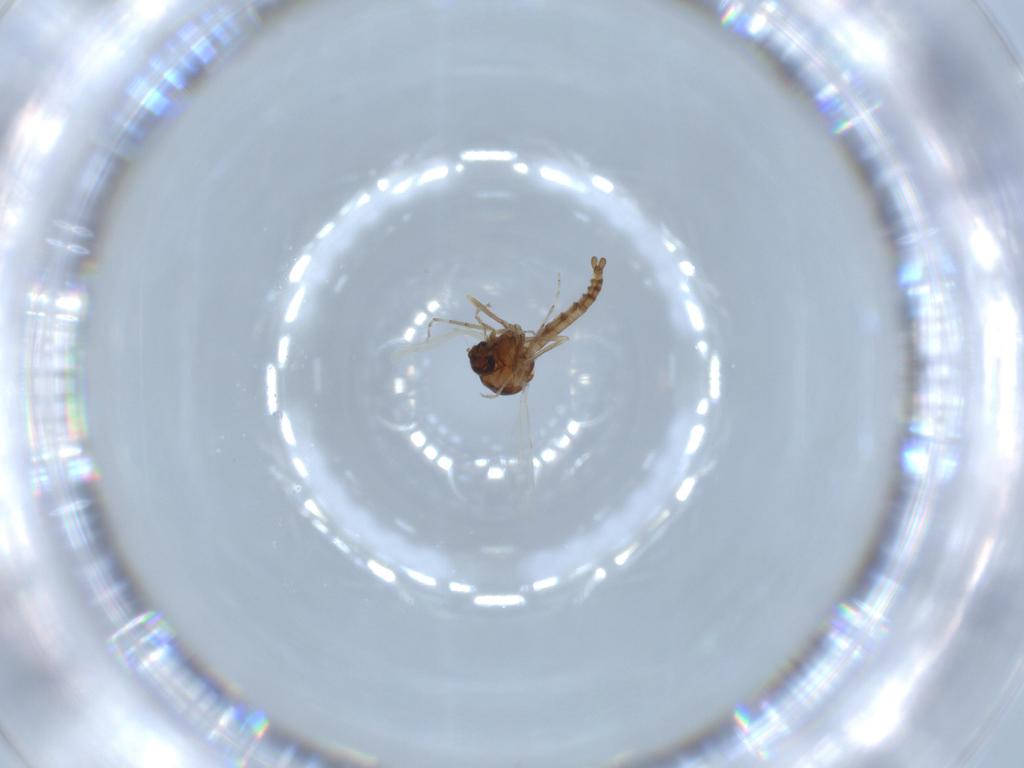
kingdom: Animalia
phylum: Arthropoda
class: Insecta
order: Diptera
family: Ceratopogonidae
